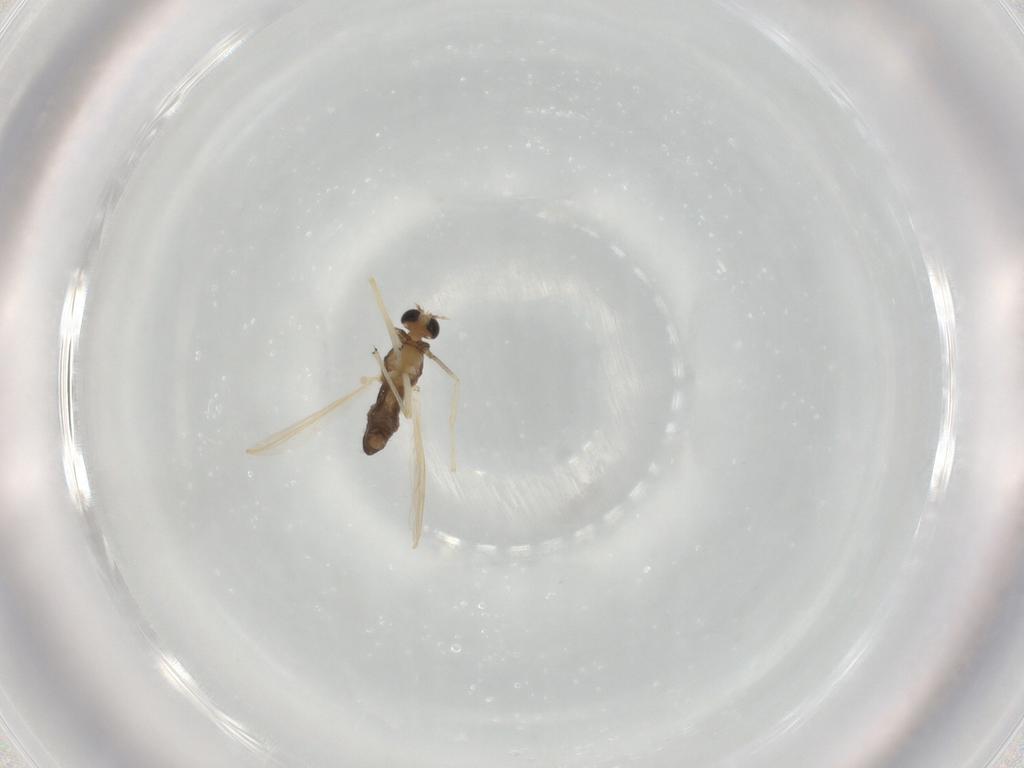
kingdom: Animalia
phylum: Arthropoda
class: Insecta
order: Diptera
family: Chironomidae
